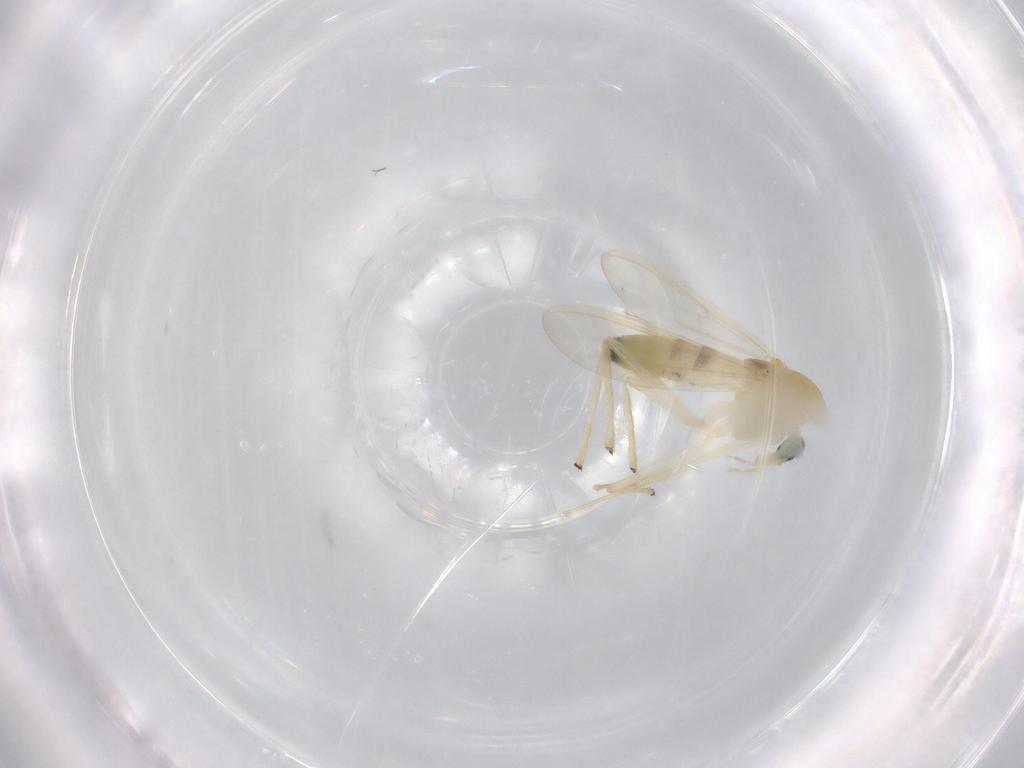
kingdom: Animalia
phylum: Arthropoda
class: Insecta
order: Diptera
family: Chironomidae
